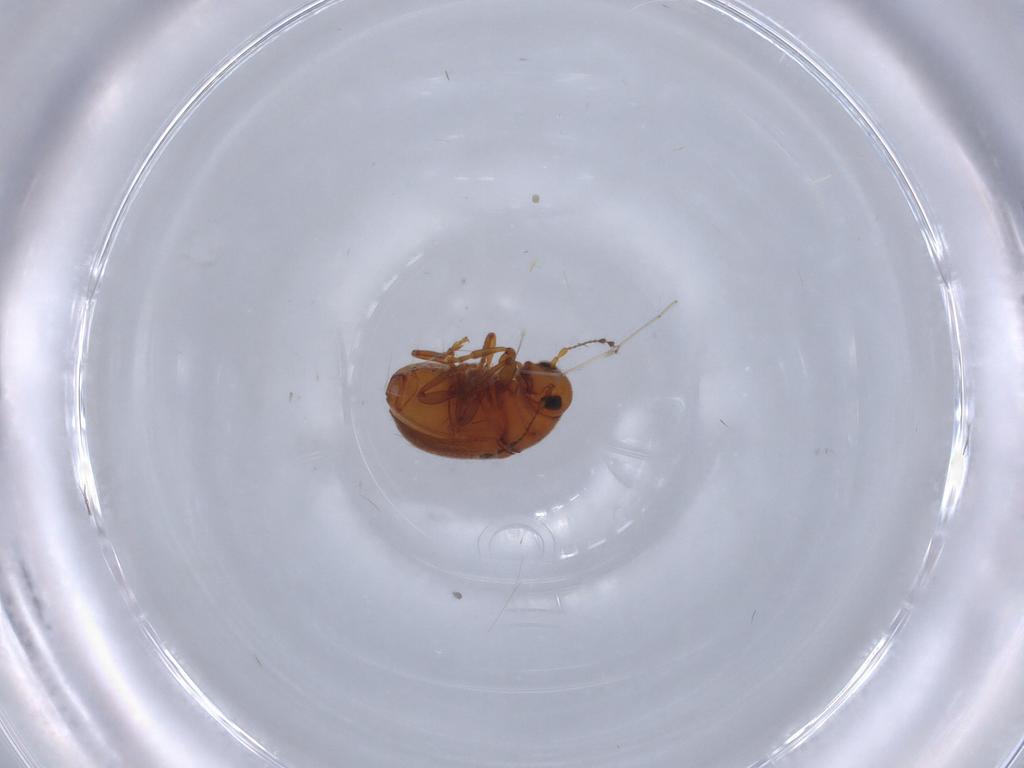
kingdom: Animalia
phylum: Arthropoda
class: Insecta
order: Coleoptera
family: Anthribidae
